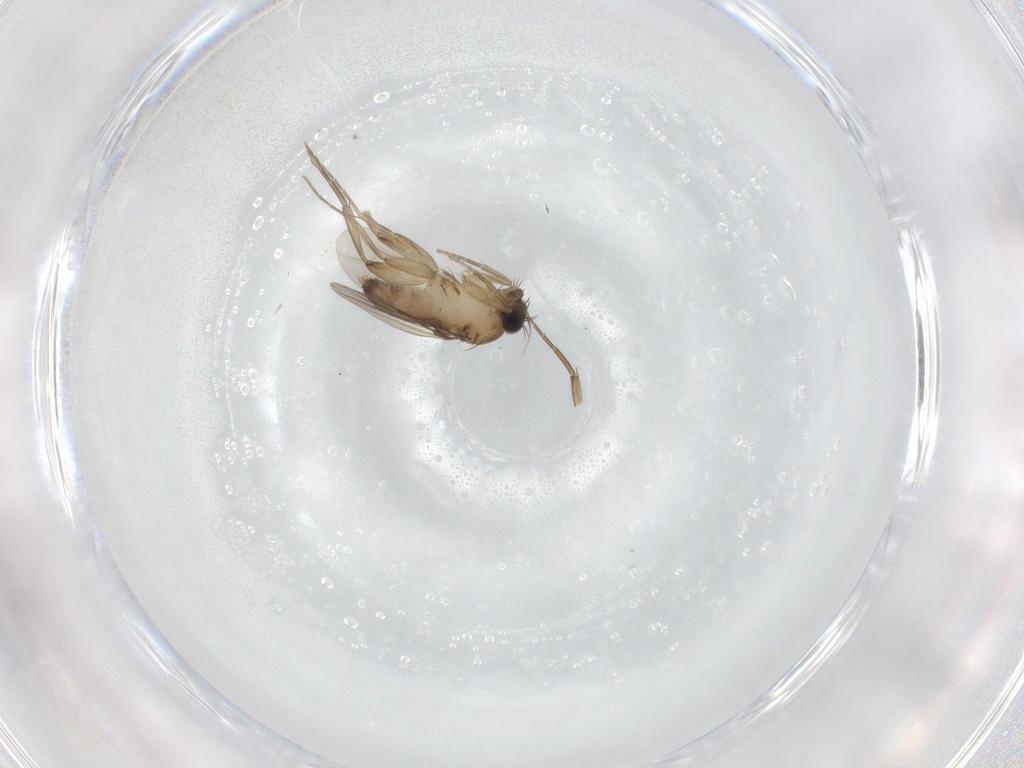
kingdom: Animalia
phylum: Arthropoda
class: Insecta
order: Diptera
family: Phoridae
